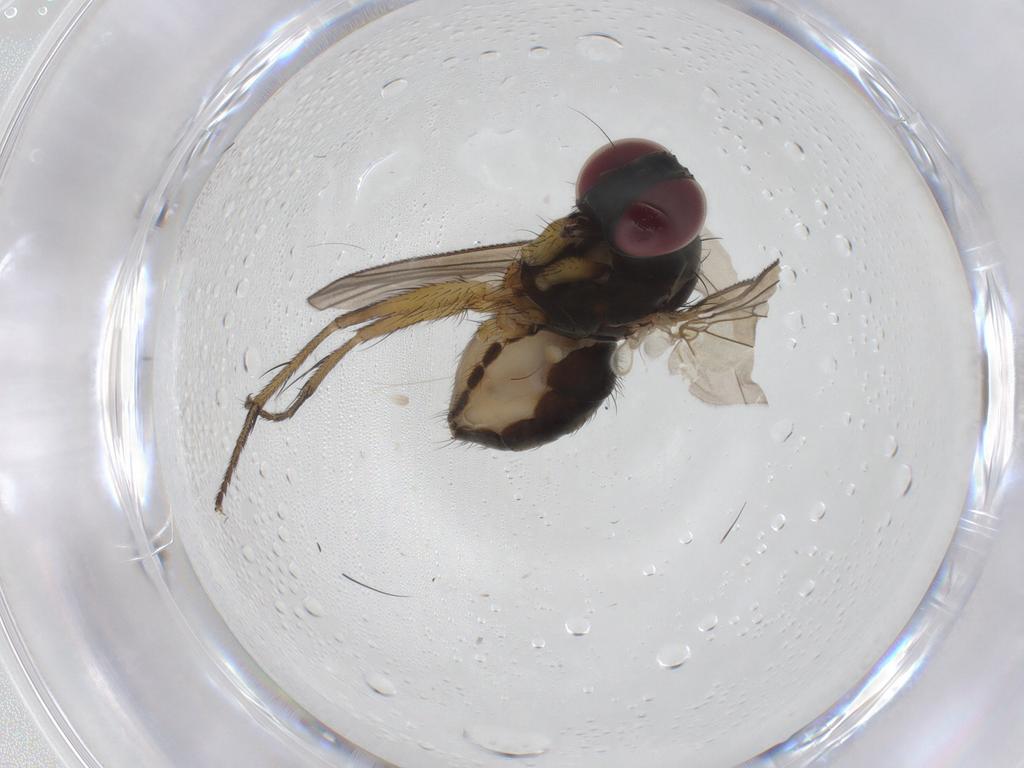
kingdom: Animalia
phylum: Arthropoda
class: Insecta
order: Diptera
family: Muscidae
